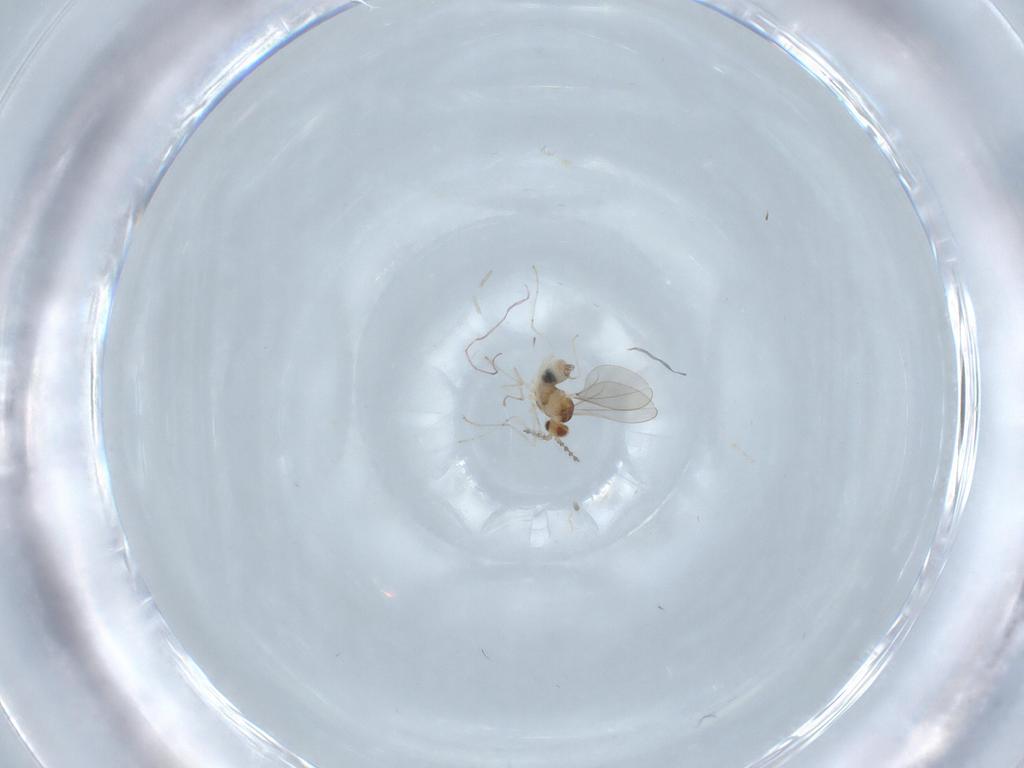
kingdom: Animalia
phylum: Arthropoda
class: Insecta
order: Diptera
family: Cecidomyiidae
